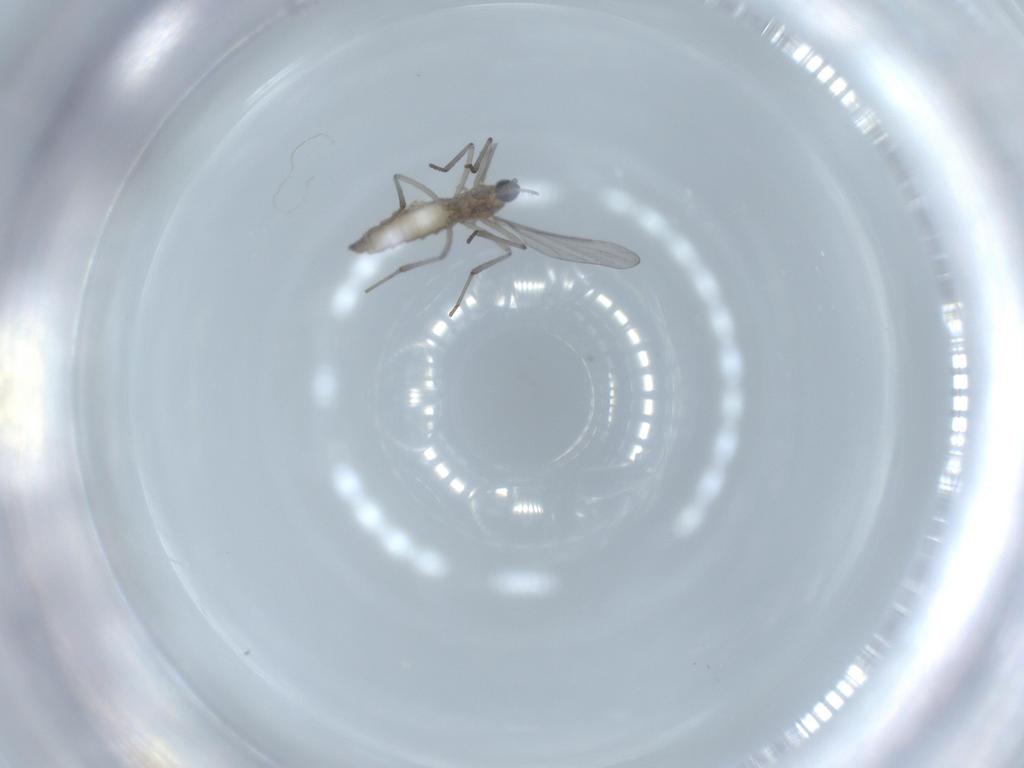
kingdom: Animalia
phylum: Arthropoda
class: Insecta
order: Diptera
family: Cecidomyiidae
